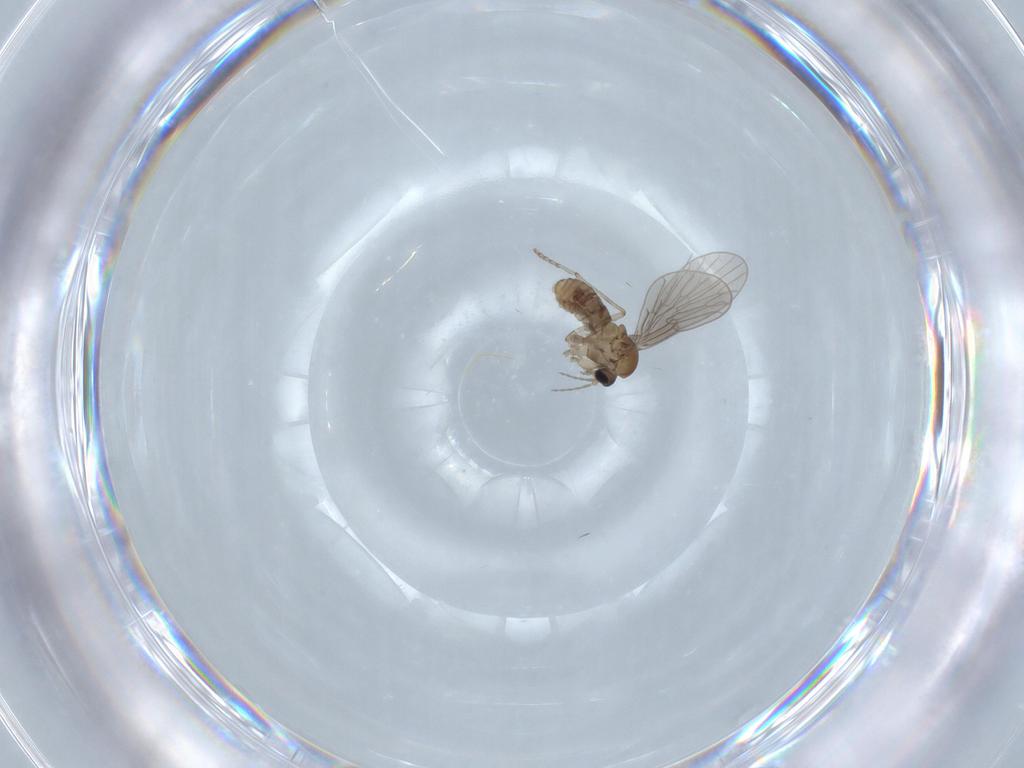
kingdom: Animalia
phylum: Arthropoda
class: Insecta
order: Diptera
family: Psychodidae
